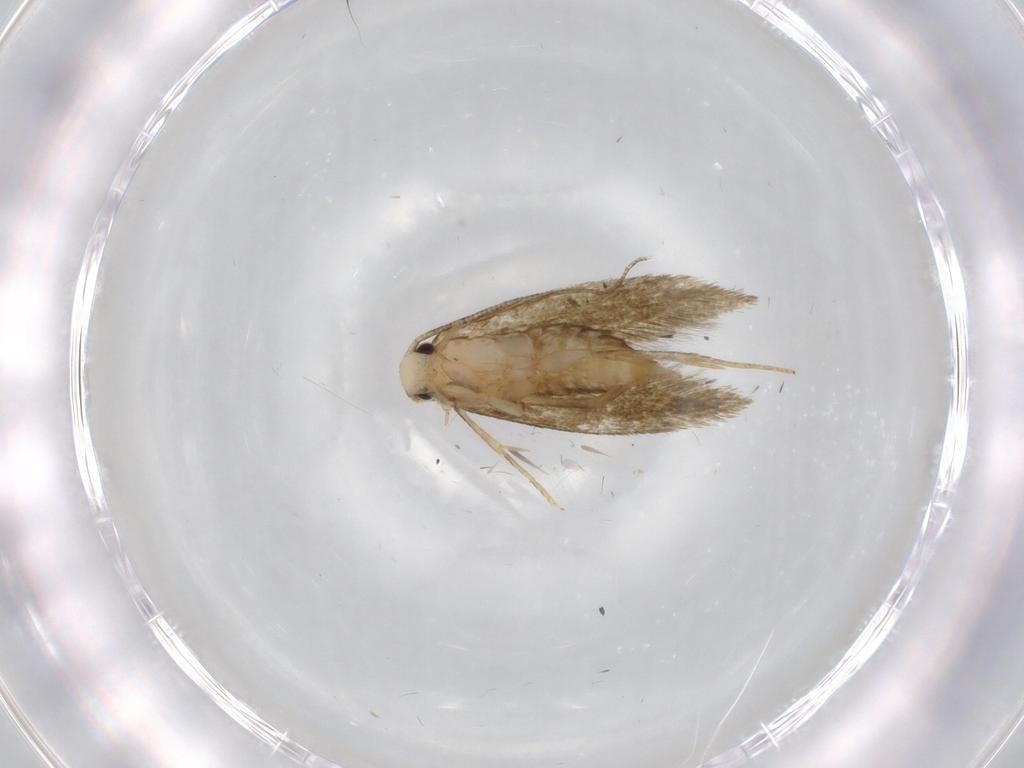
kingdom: Animalia
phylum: Arthropoda
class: Insecta
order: Lepidoptera
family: Tineidae
